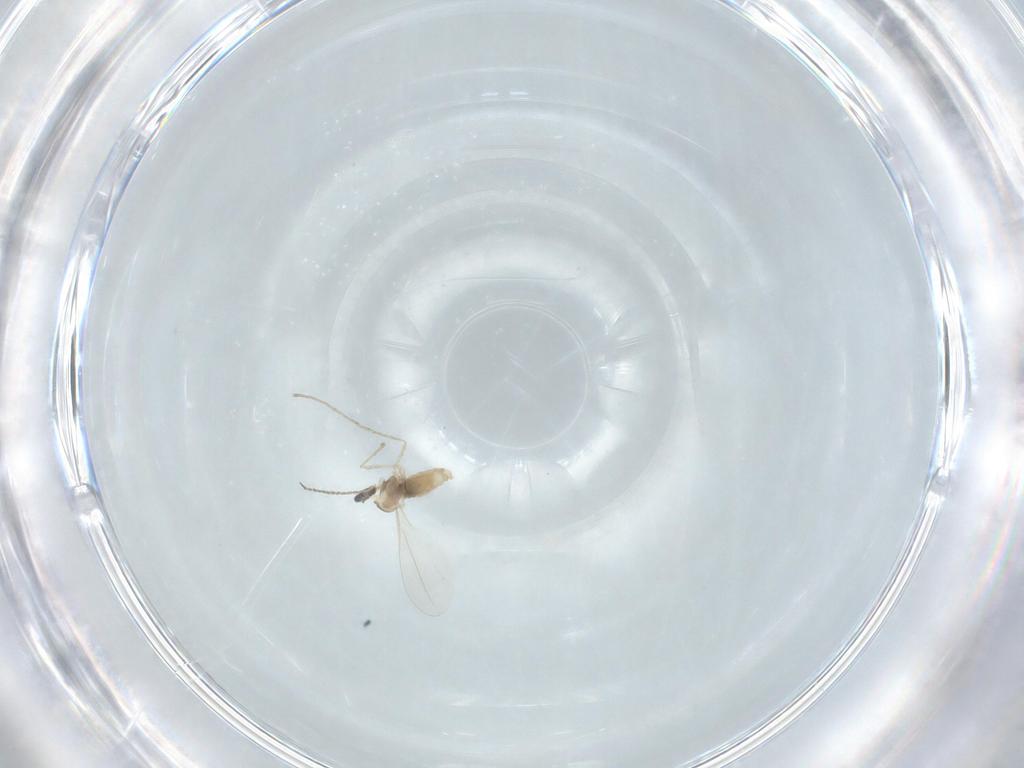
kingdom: Animalia
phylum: Arthropoda
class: Insecta
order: Diptera
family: Cecidomyiidae
